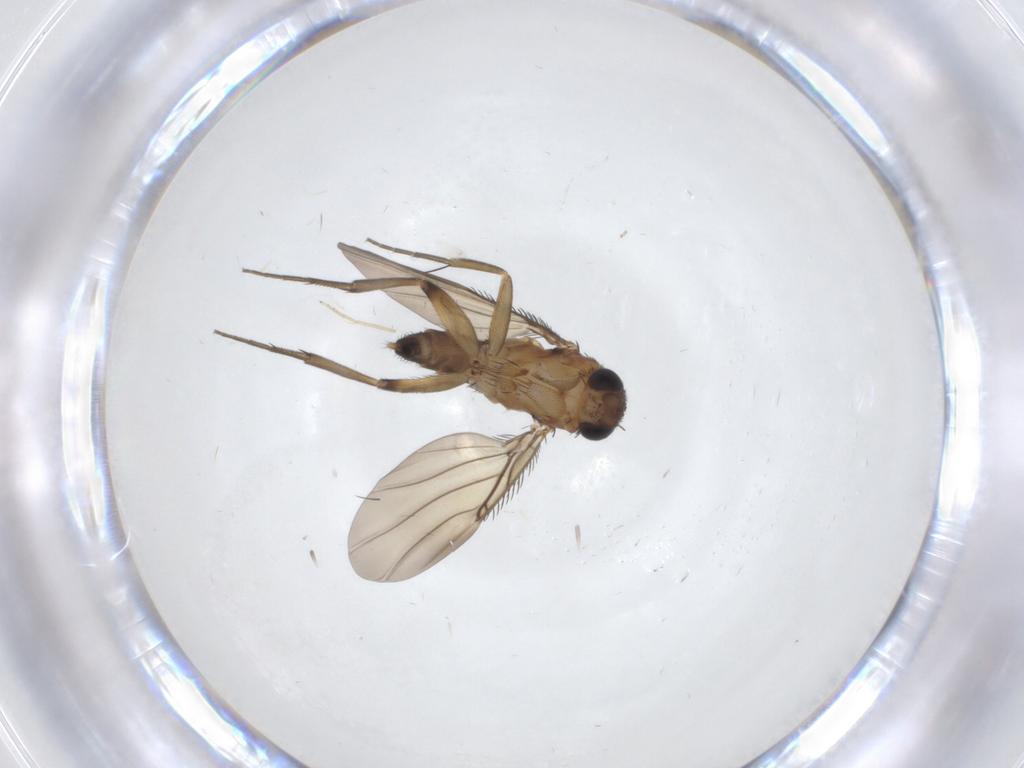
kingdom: Animalia
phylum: Arthropoda
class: Insecta
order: Diptera
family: Phoridae
